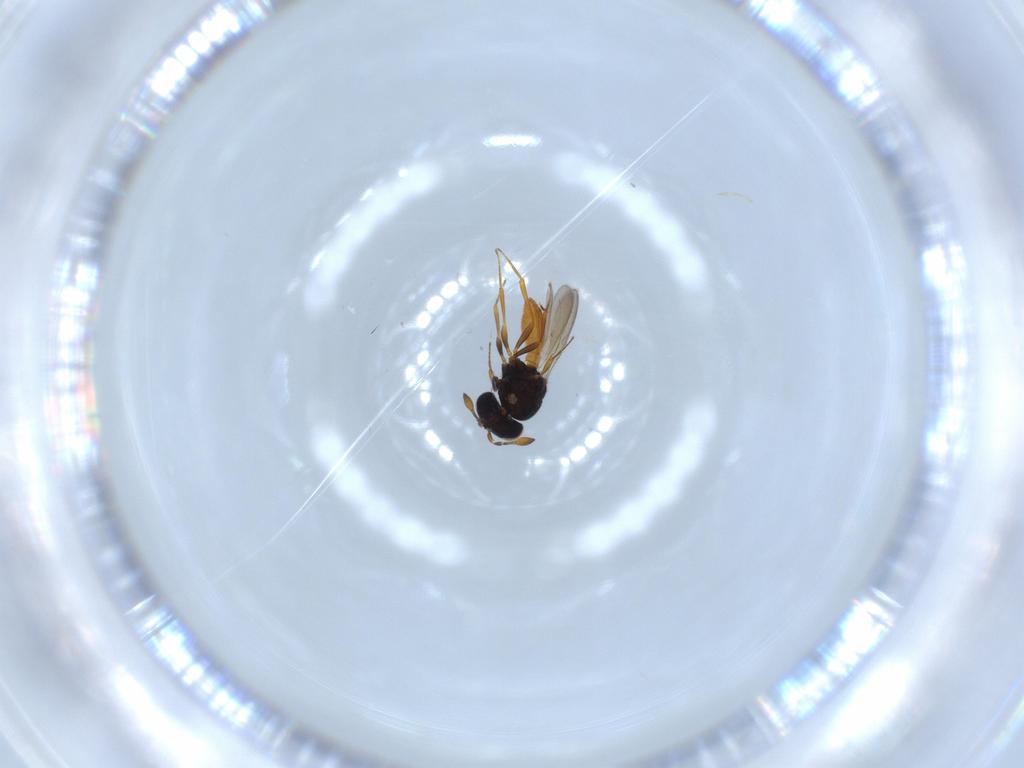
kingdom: Animalia
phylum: Arthropoda
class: Insecta
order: Hymenoptera
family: Scelionidae
